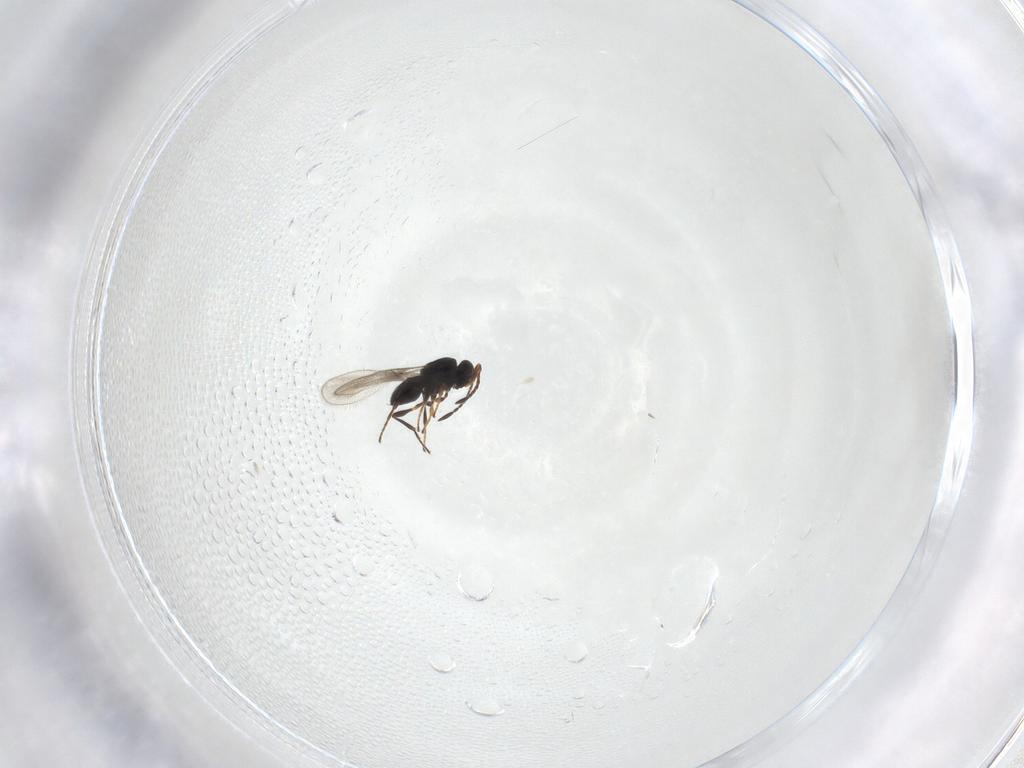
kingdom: Animalia
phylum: Arthropoda
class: Insecta
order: Hymenoptera
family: Platygastridae
